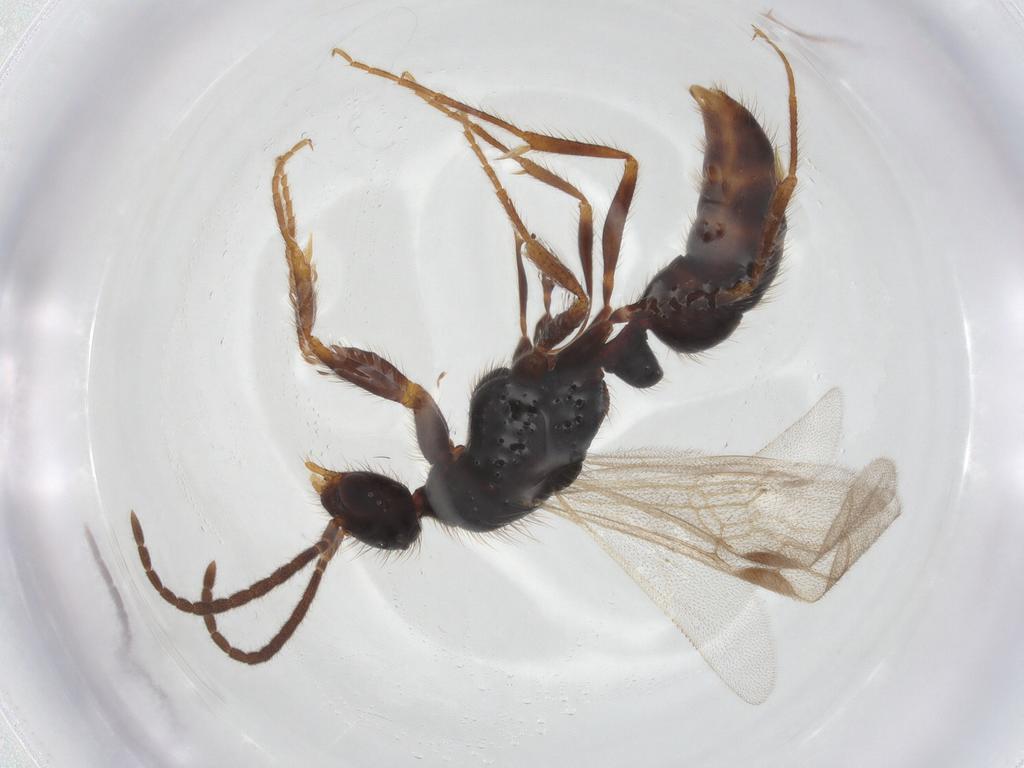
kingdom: Animalia
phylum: Arthropoda
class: Insecta
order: Hymenoptera
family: Formicidae
